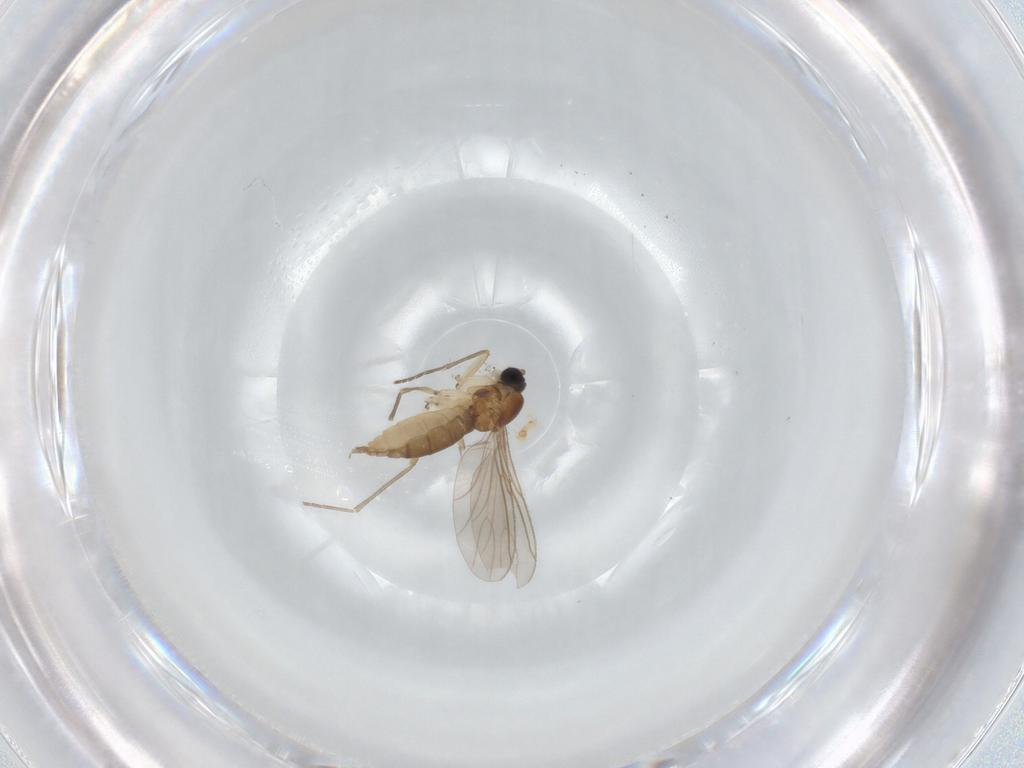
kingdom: Animalia
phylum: Arthropoda
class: Insecta
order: Diptera
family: Sciaridae
